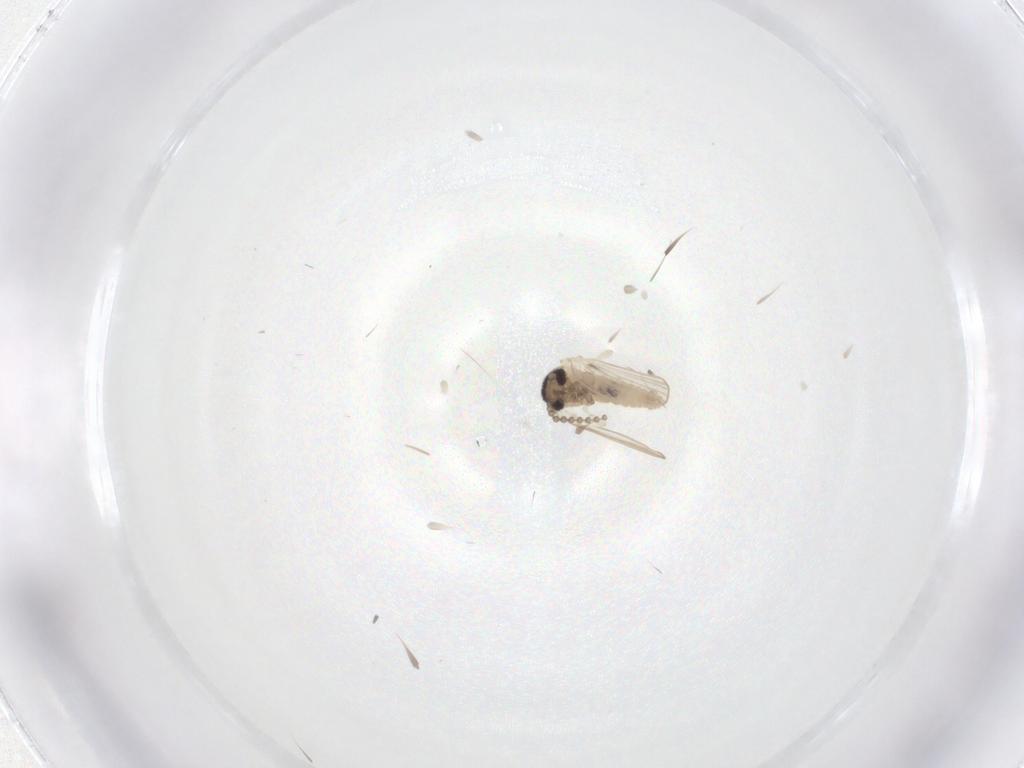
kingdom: Animalia
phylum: Arthropoda
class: Insecta
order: Diptera
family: Psychodidae
